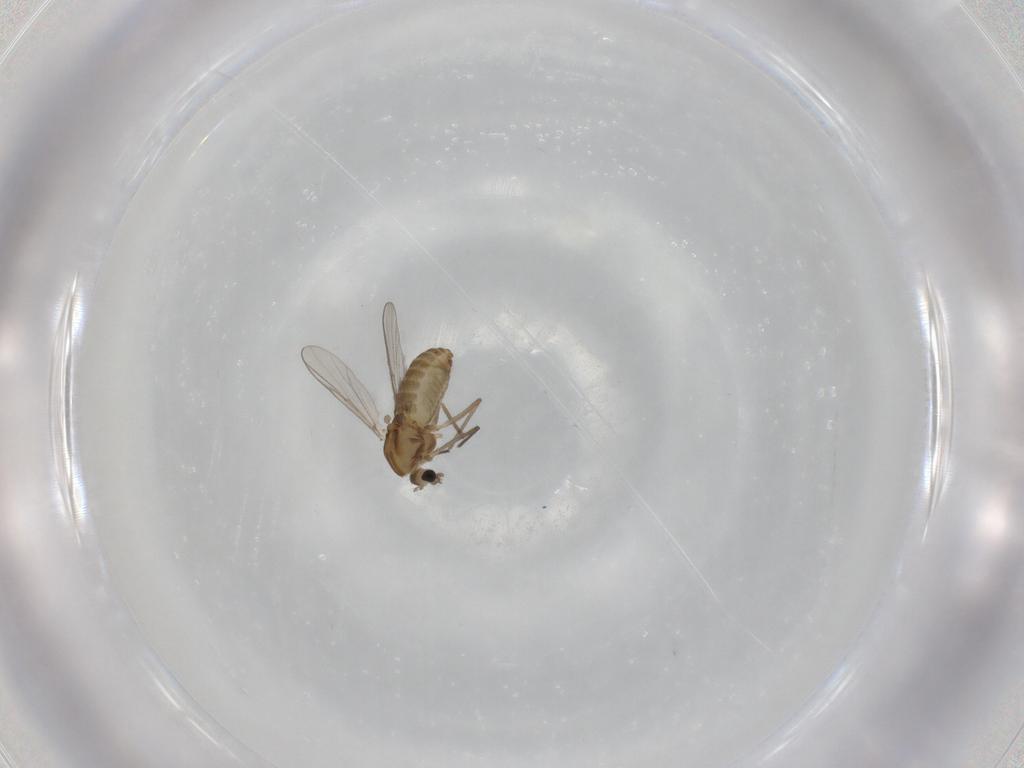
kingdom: Animalia
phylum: Arthropoda
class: Insecta
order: Diptera
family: Chironomidae
